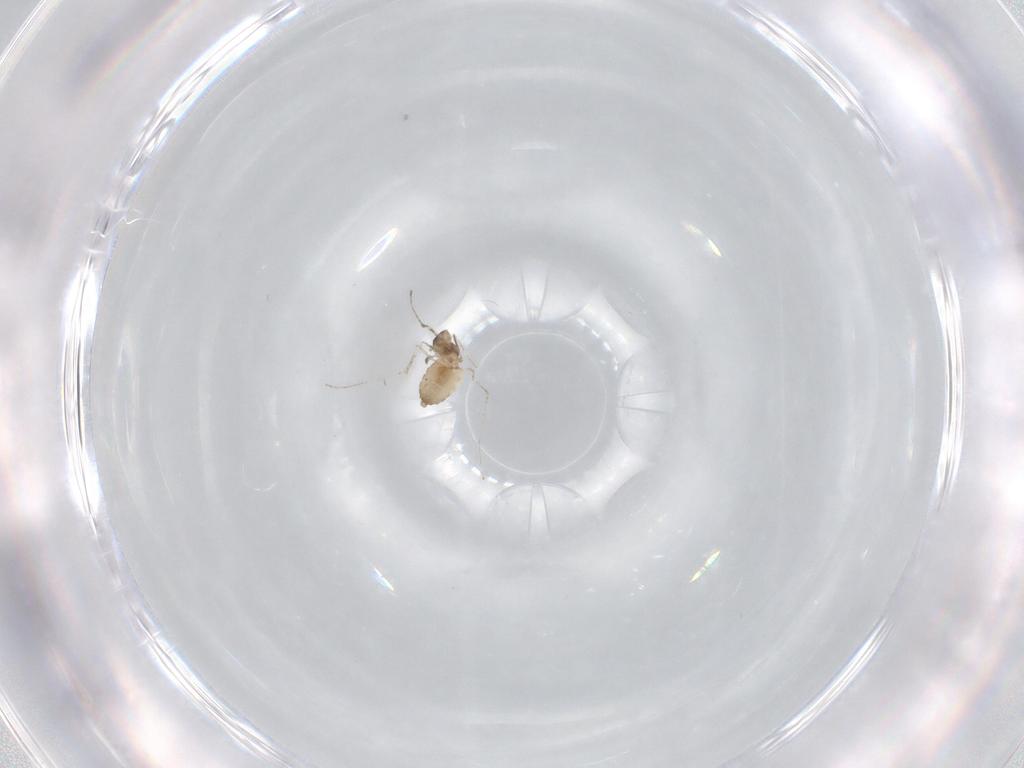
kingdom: Animalia
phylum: Arthropoda
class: Insecta
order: Diptera
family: Cecidomyiidae
